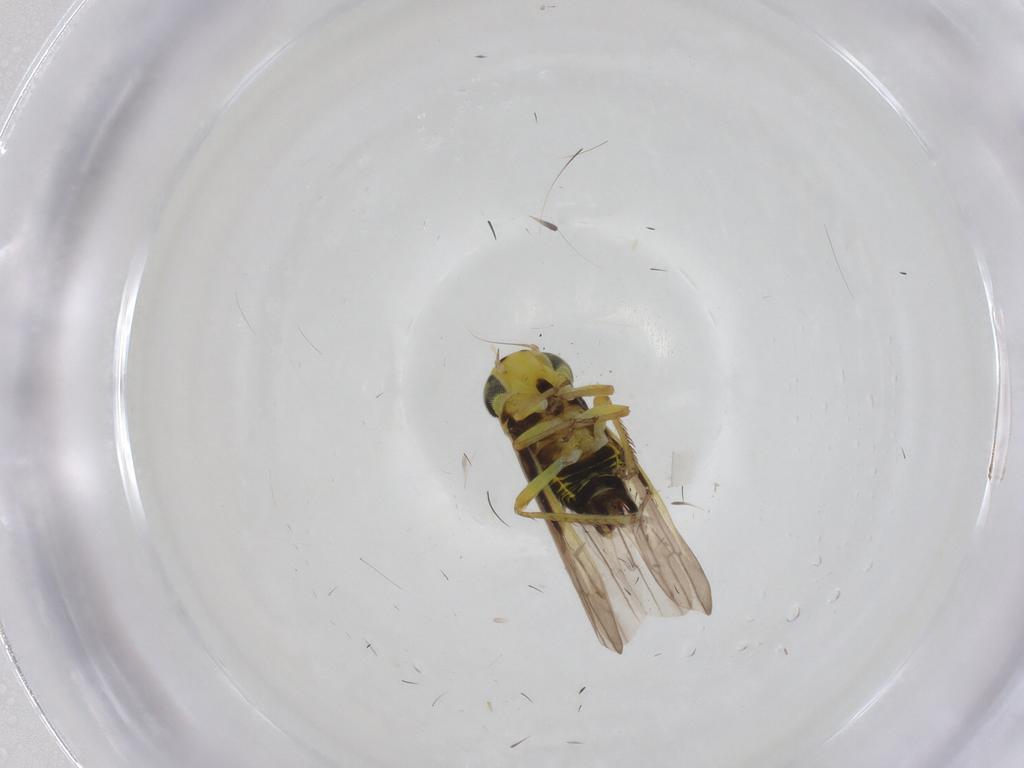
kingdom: Animalia
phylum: Arthropoda
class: Insecta
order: Hemiptera
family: Cicadellidae
